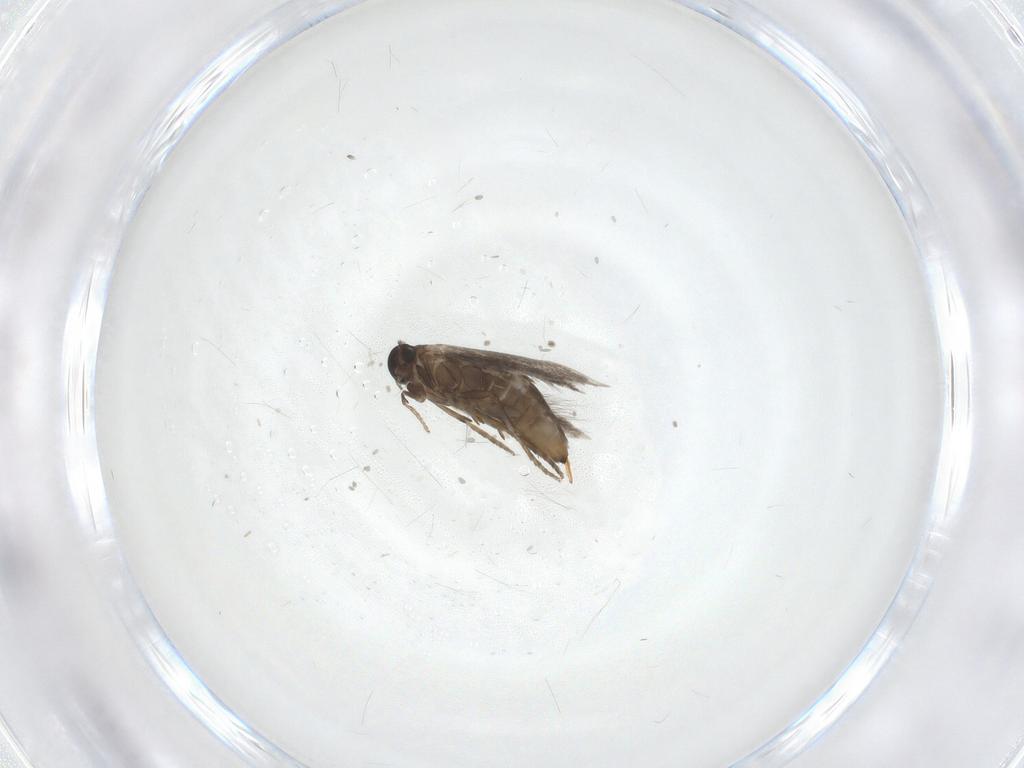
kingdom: Animalia
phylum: Arthropoda
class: Insecta
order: Lepidoptera
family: Heliozelidae
